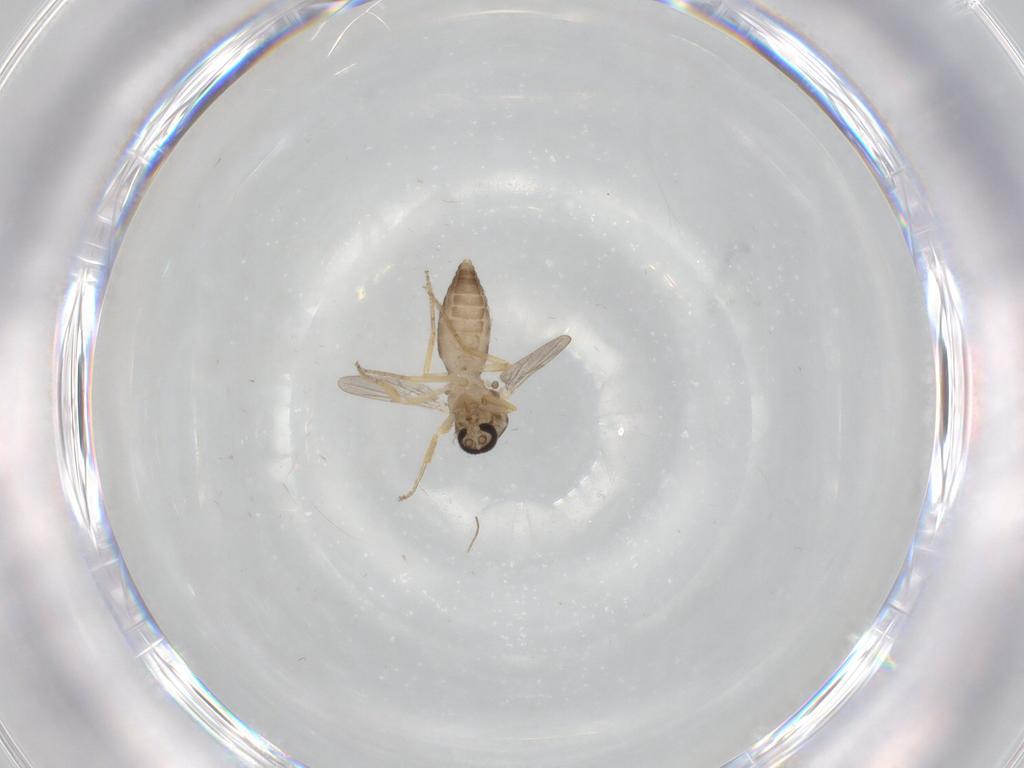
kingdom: Animalia
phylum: Arthropoda
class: Insecta
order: Diptera
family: Ceratopogonidae
